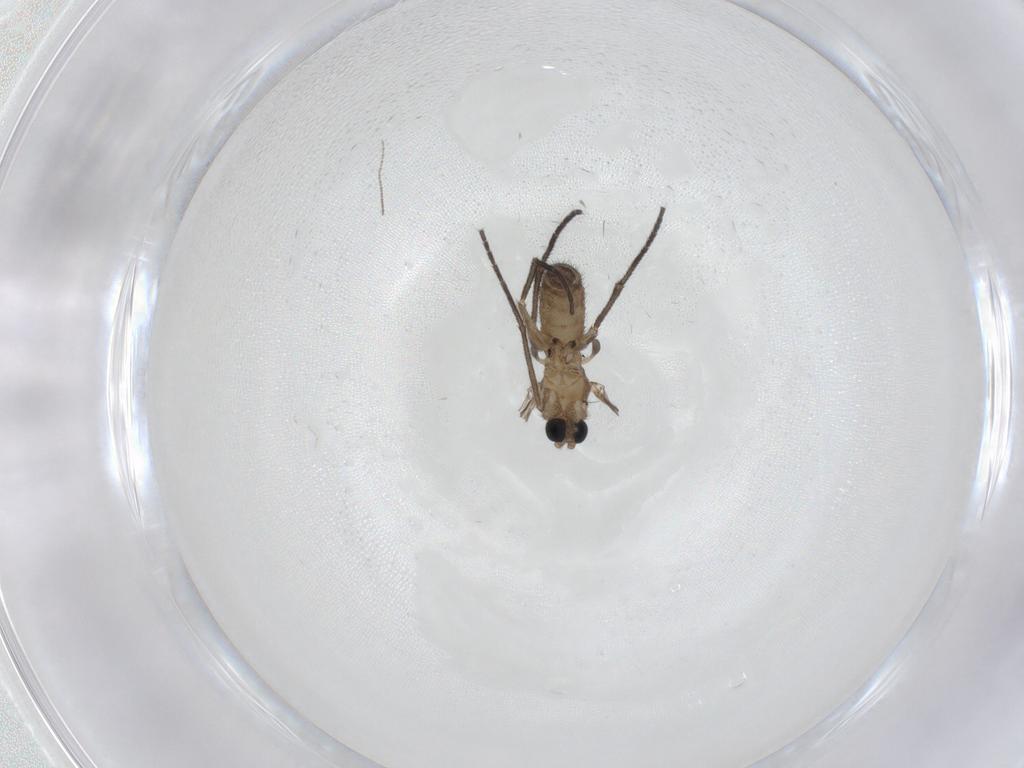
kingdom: Animalia
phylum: Arthropoda
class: Insecta
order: Diptera
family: Sciaridae
